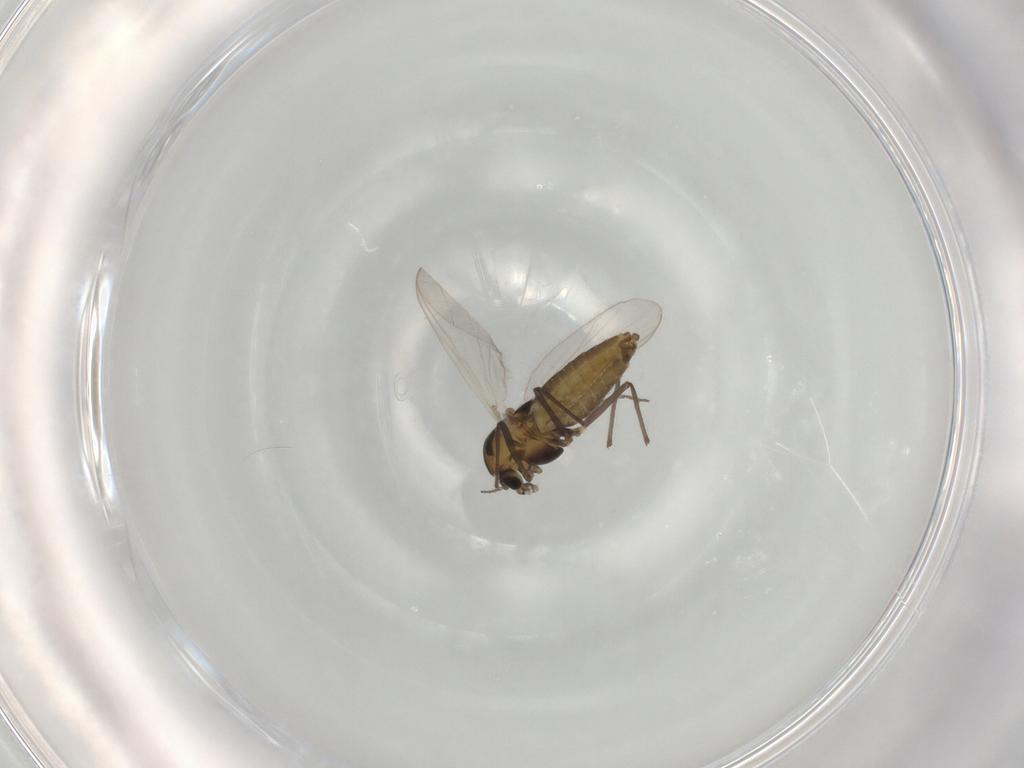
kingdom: Animalia
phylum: Arthropoda
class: Insecta
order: Diptera
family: Chironomidae
